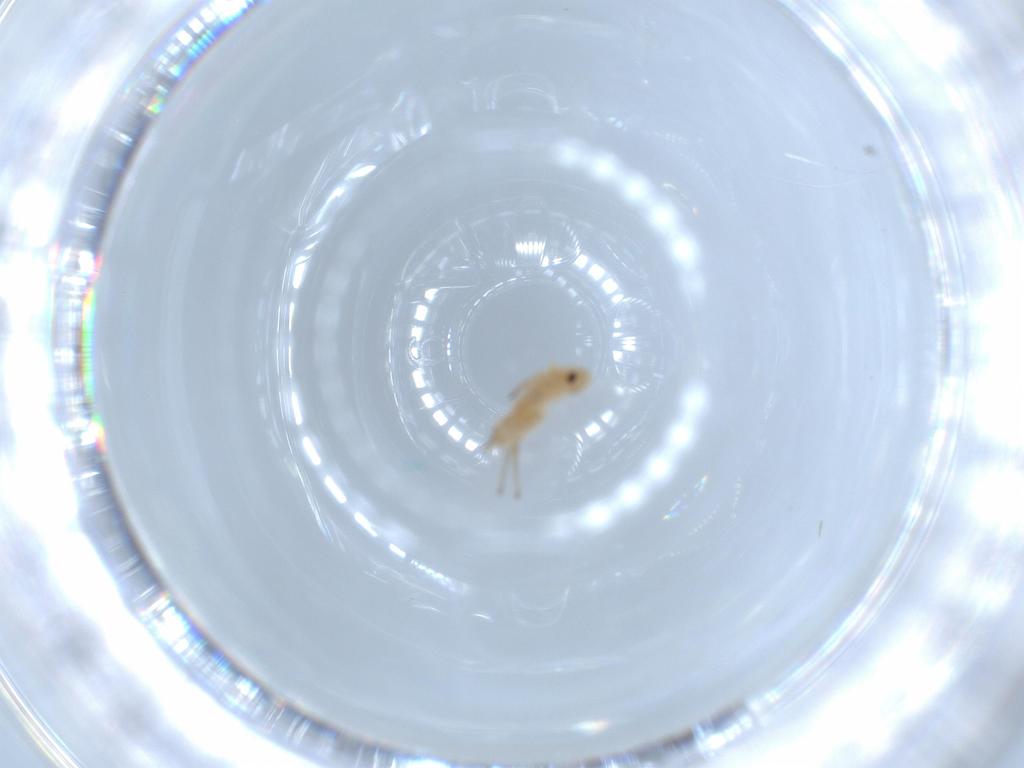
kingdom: Animalia
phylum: Arthropoda
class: Insecta
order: Hemiptera
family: Aphididae
